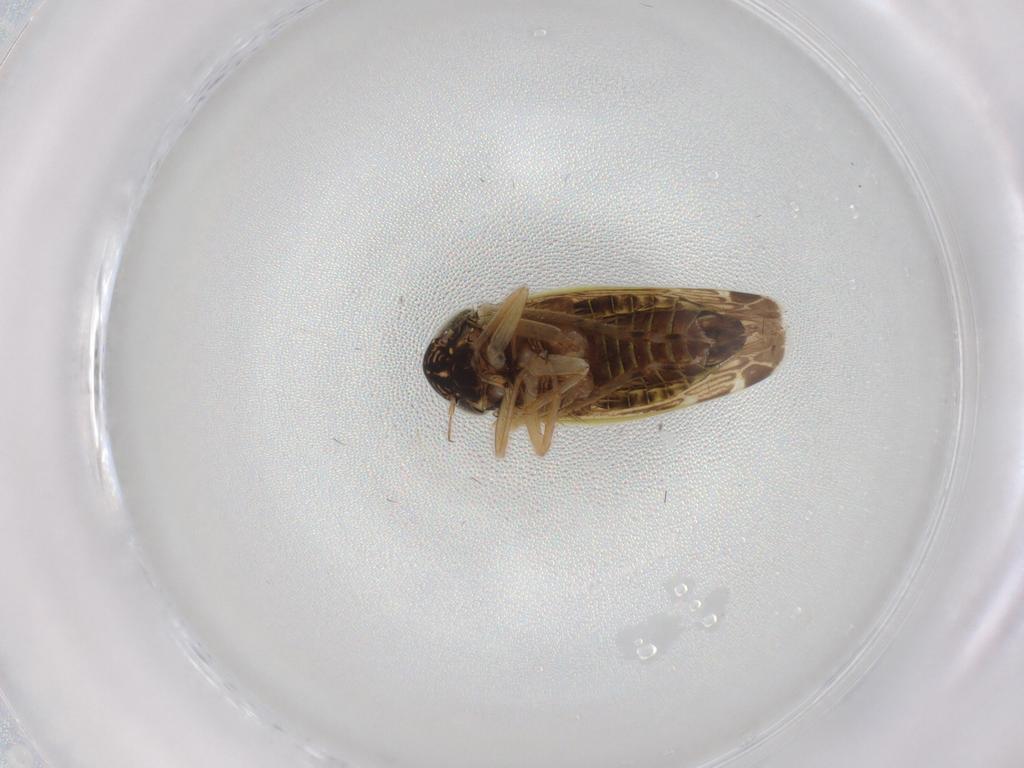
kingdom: Animalia
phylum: Arthropoda
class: Insecta
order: Hemiptera
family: Cicadellidae
